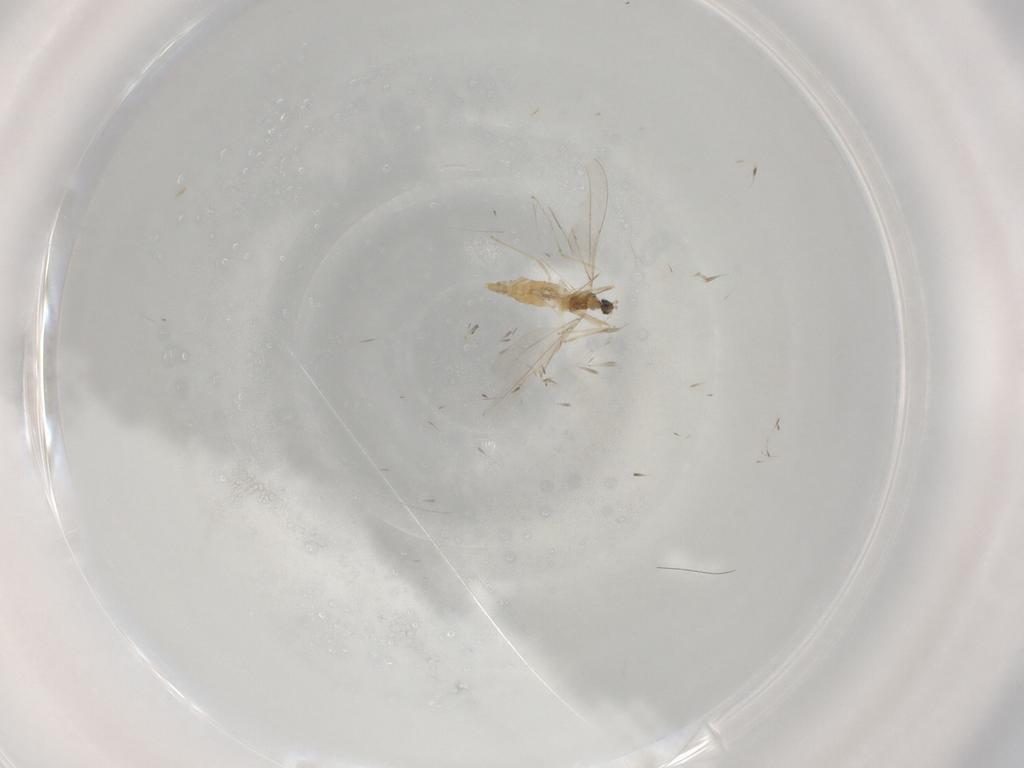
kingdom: Animalia
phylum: Arthropoda
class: Insecta
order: Diptera
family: Cecidomyiidae
